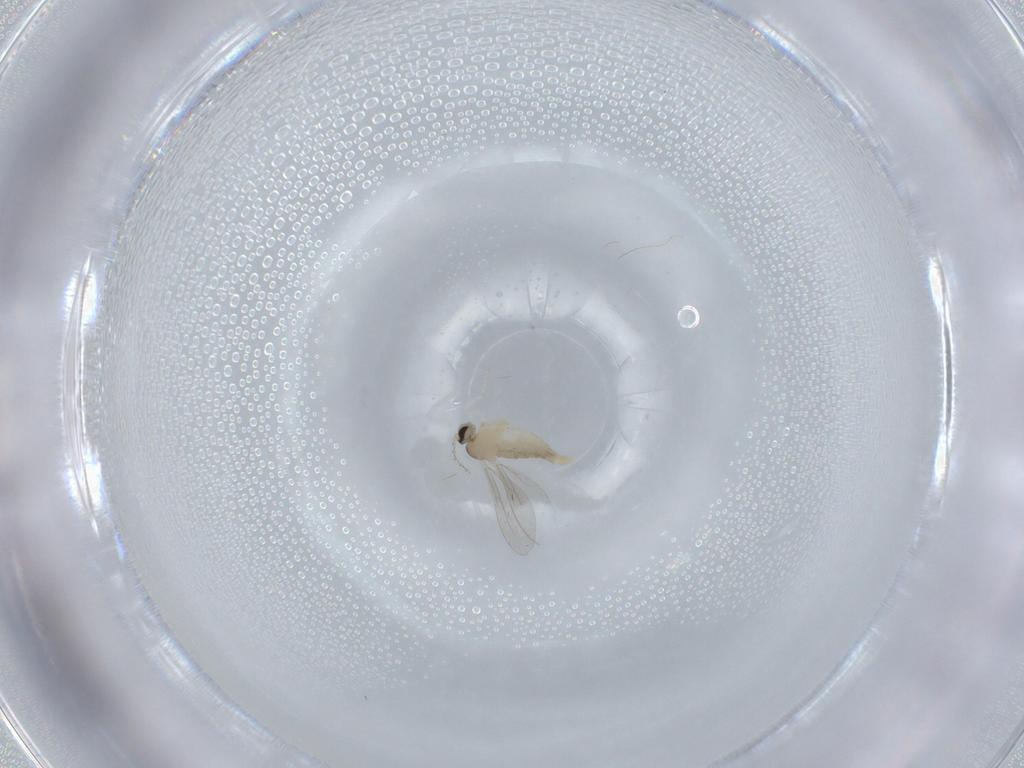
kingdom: Animalia
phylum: Arthropoda
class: Insecta
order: Diptera
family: Cecidomyiidae
